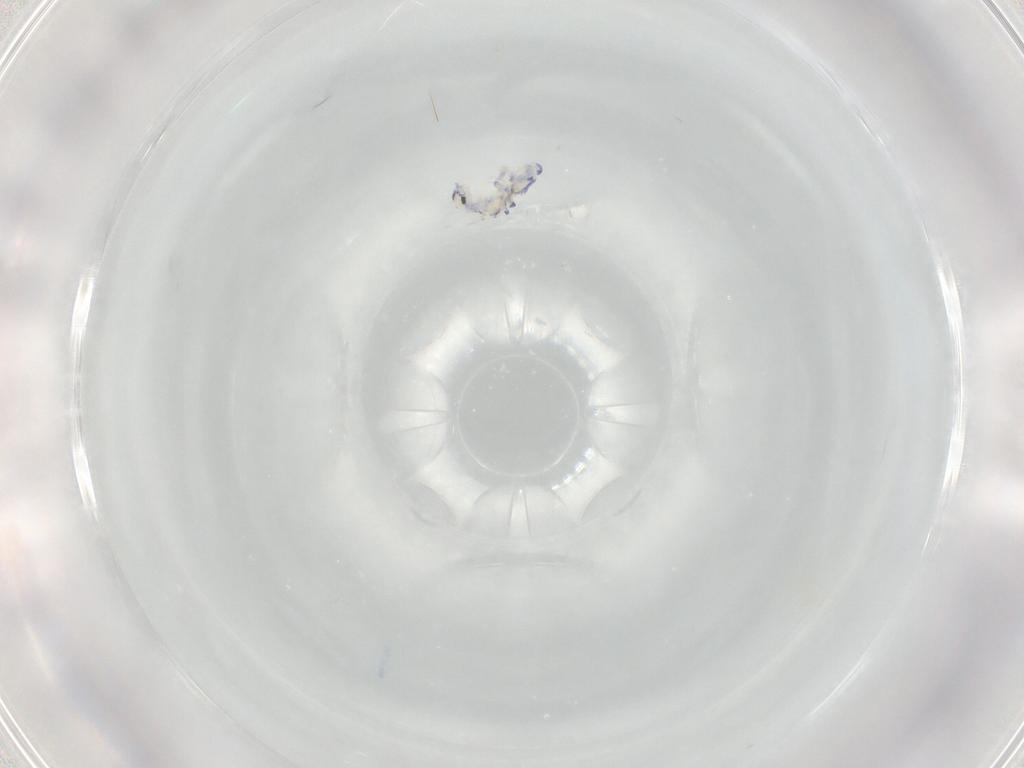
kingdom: Animalia
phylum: Arthropoda
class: Collembola
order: Entomobryomorpha
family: Entomobryidae
